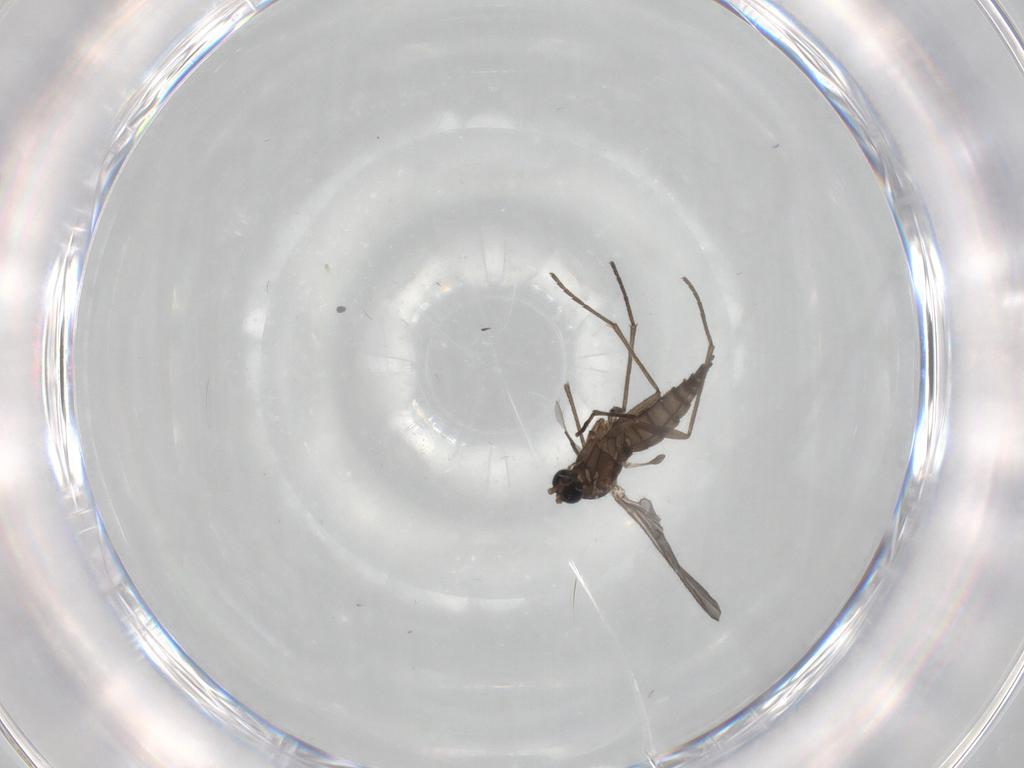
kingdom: Animalia
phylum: Arthropoda
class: Insecta
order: Diptera
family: Sciaridae
